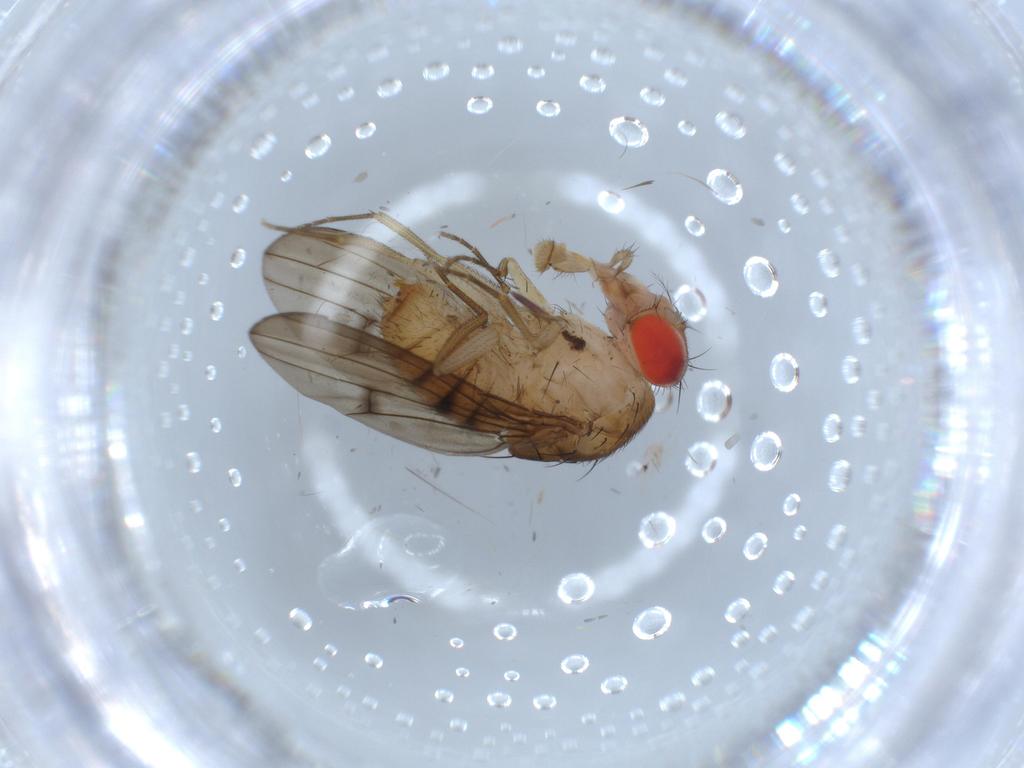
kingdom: Animalia
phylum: Arthropoda
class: Insecta
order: Diptera
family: Drosophilidae
